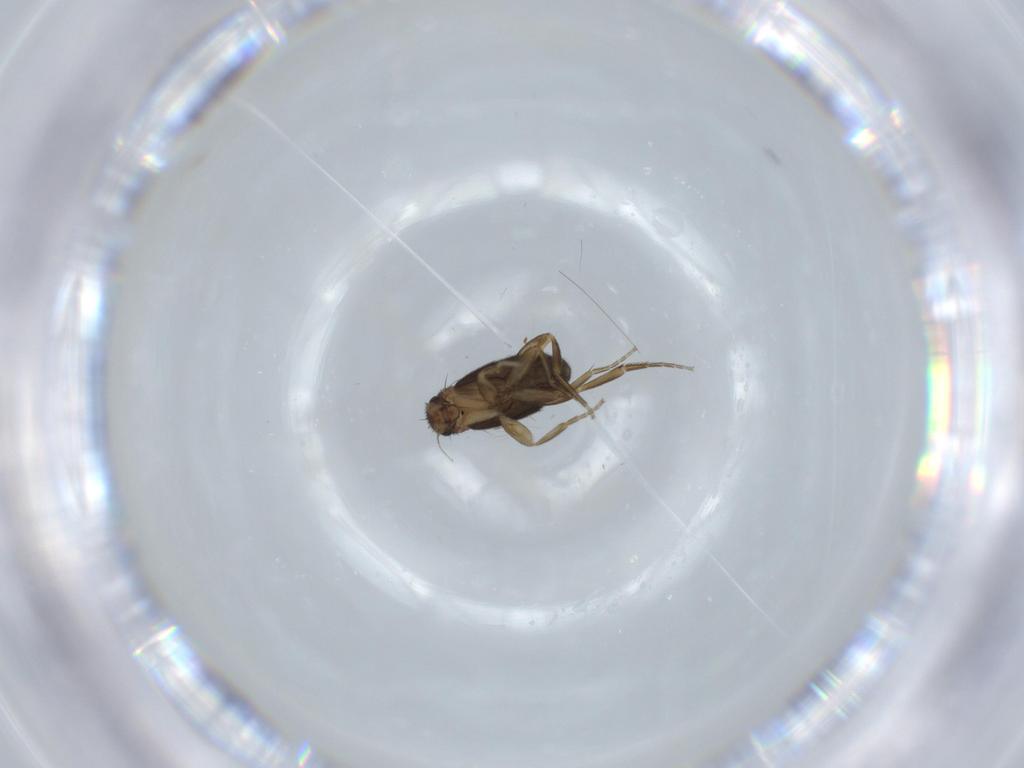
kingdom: Animalia
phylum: Arthropoda
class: Insecta
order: Diptera
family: Phoridae
